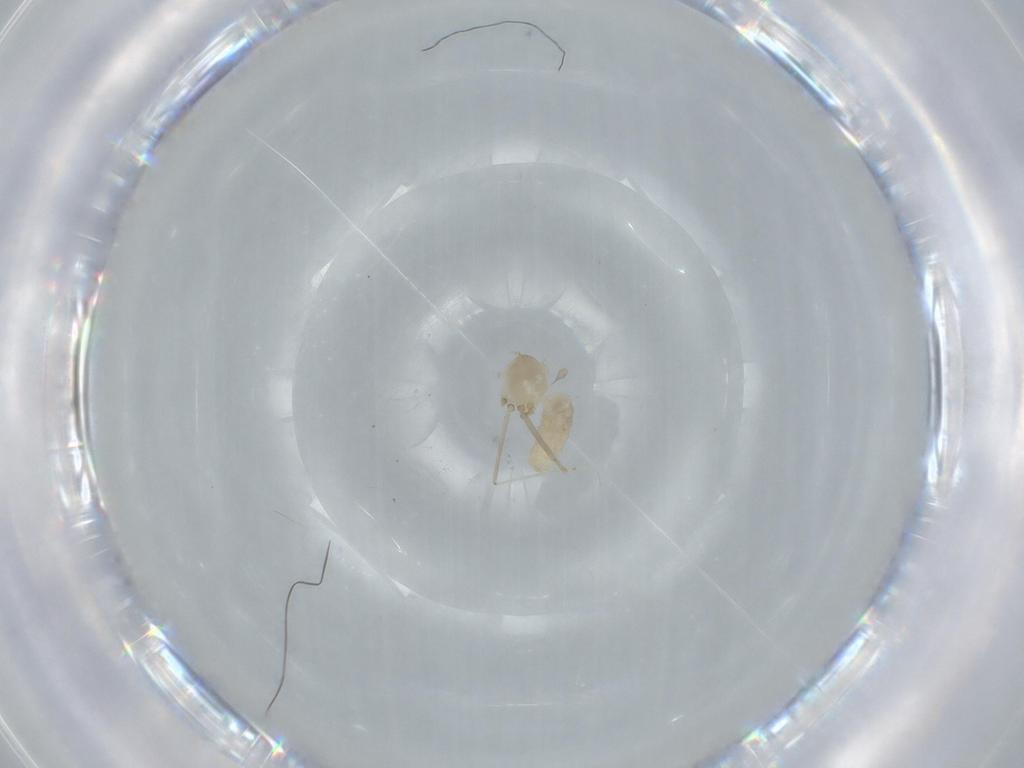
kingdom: Animalia
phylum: Arthropoda
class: Insecta
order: Diptera
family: Cecidomyiidae
